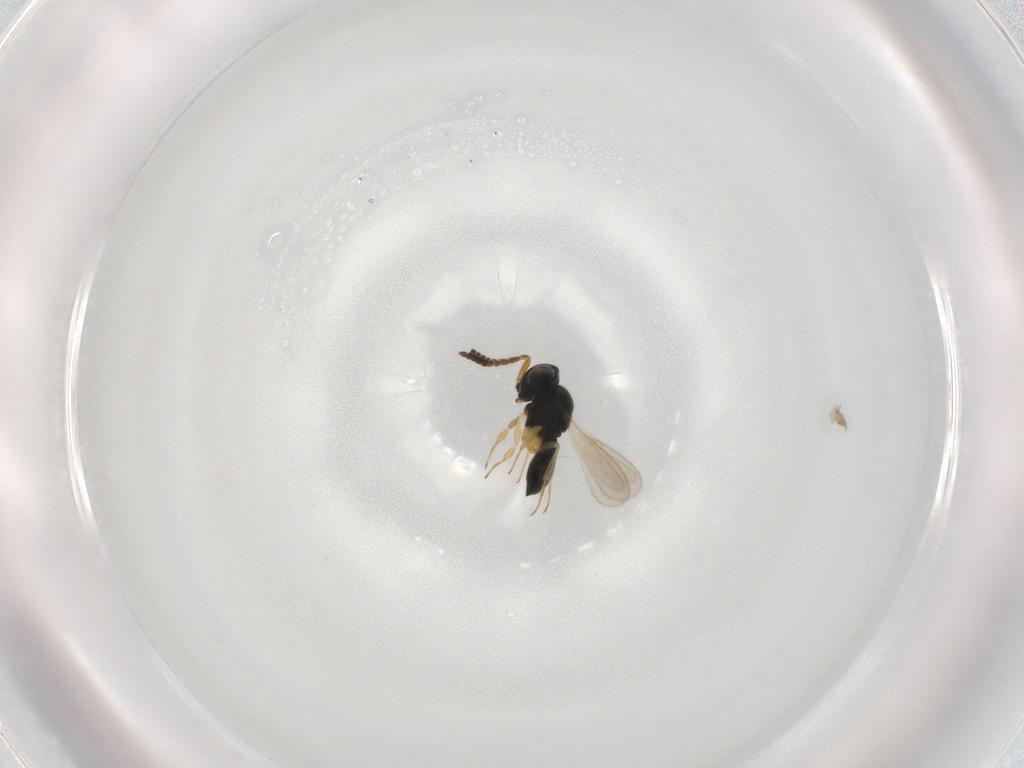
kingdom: Animalia
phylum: Arthropoda
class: Insecta
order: Hymenoptera
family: Scelionidae
